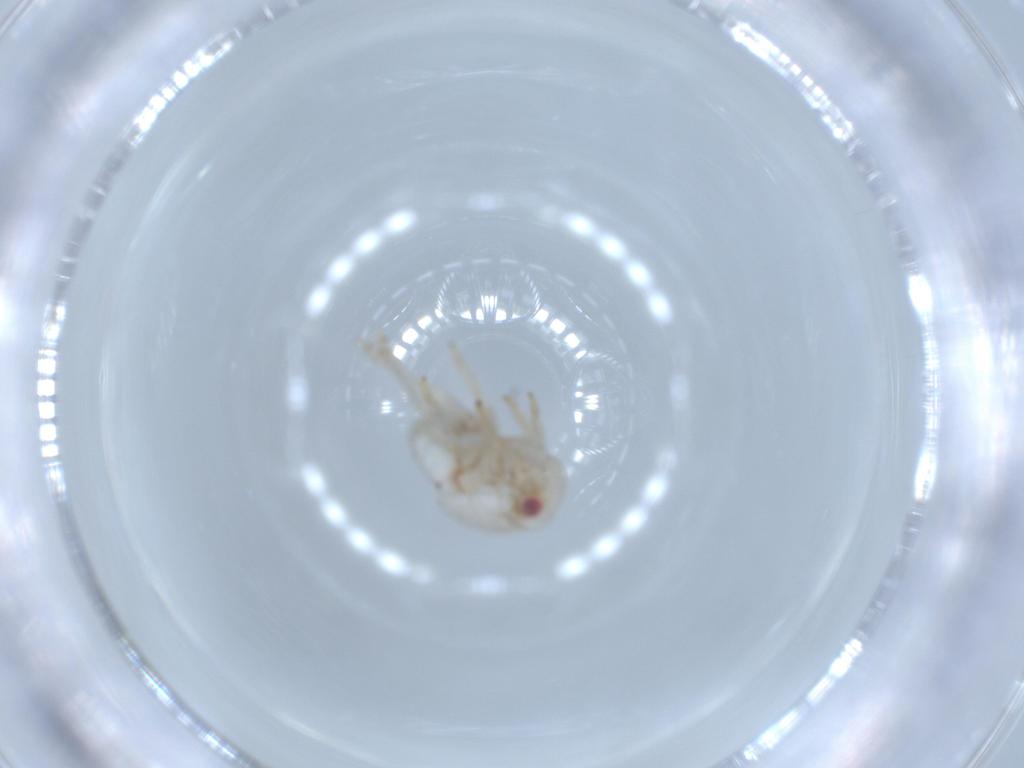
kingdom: Animalia
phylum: Arthropoda
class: Insecta
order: Hemiptera
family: Acanaloniidae
